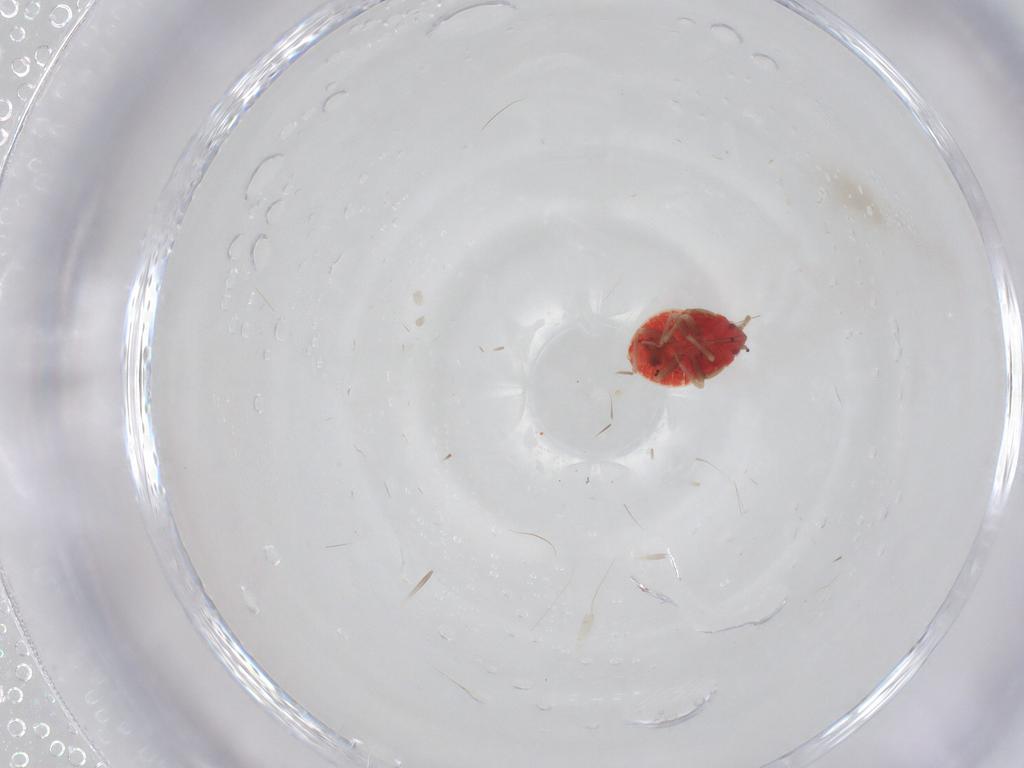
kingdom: Animalia
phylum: Arthropoda
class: Insecta
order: Hemiptera
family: Anthocoridae
